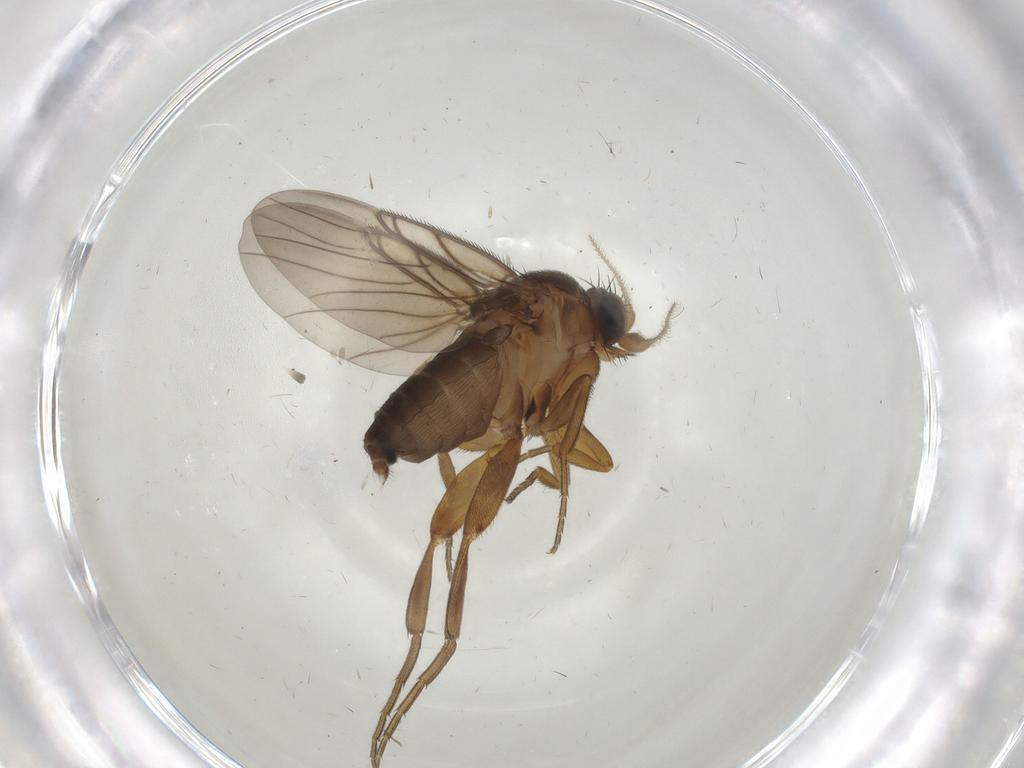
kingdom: Animalia
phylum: Arthropoda
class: Insecta
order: Diptera
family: Phoridae
